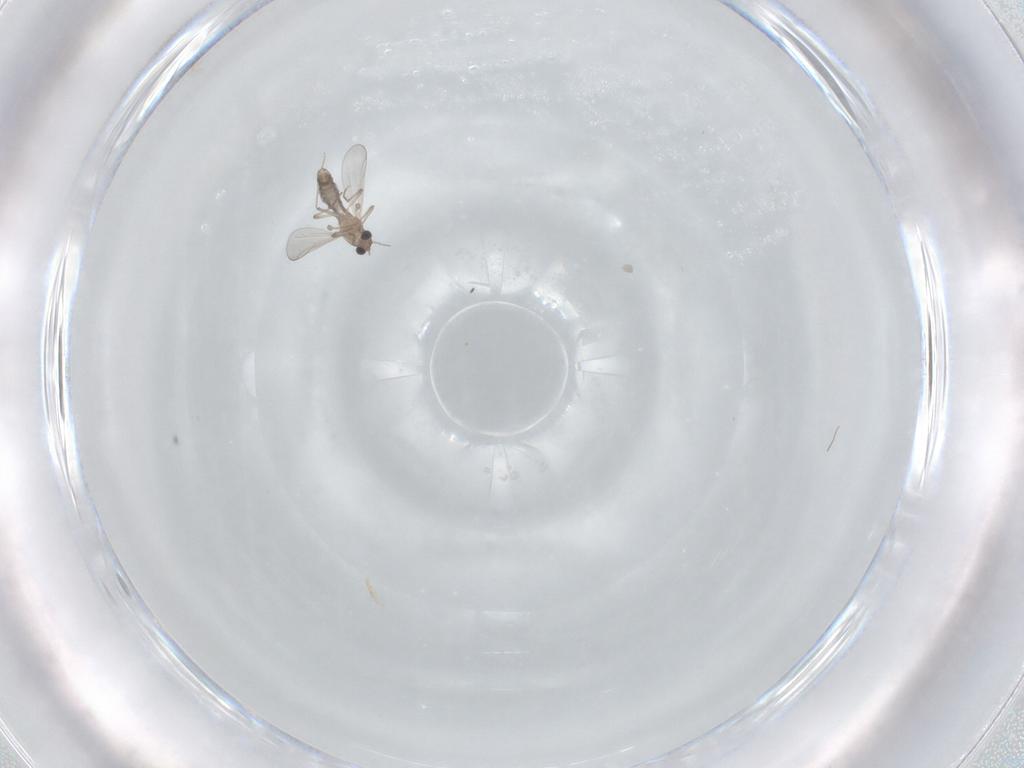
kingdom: Animalia
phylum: Arthropoda
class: Insecta
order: Diptera
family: Chironomidae
